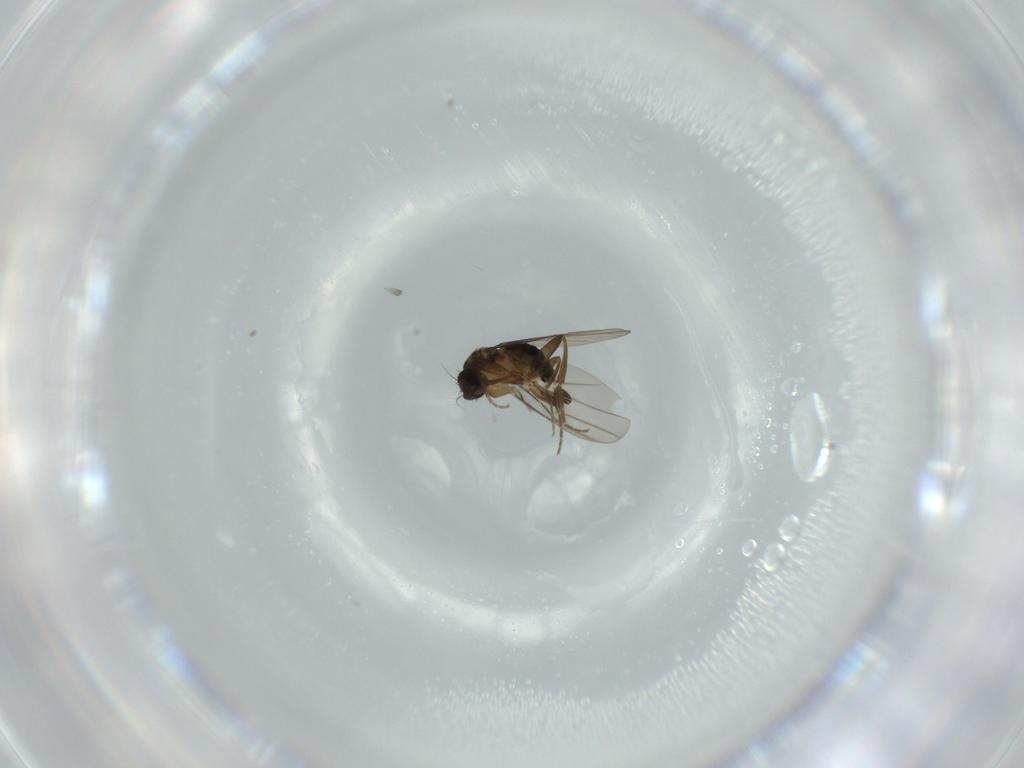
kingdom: Animalia
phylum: Arthropoda
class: Insecta
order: Diptera
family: Phoridae
